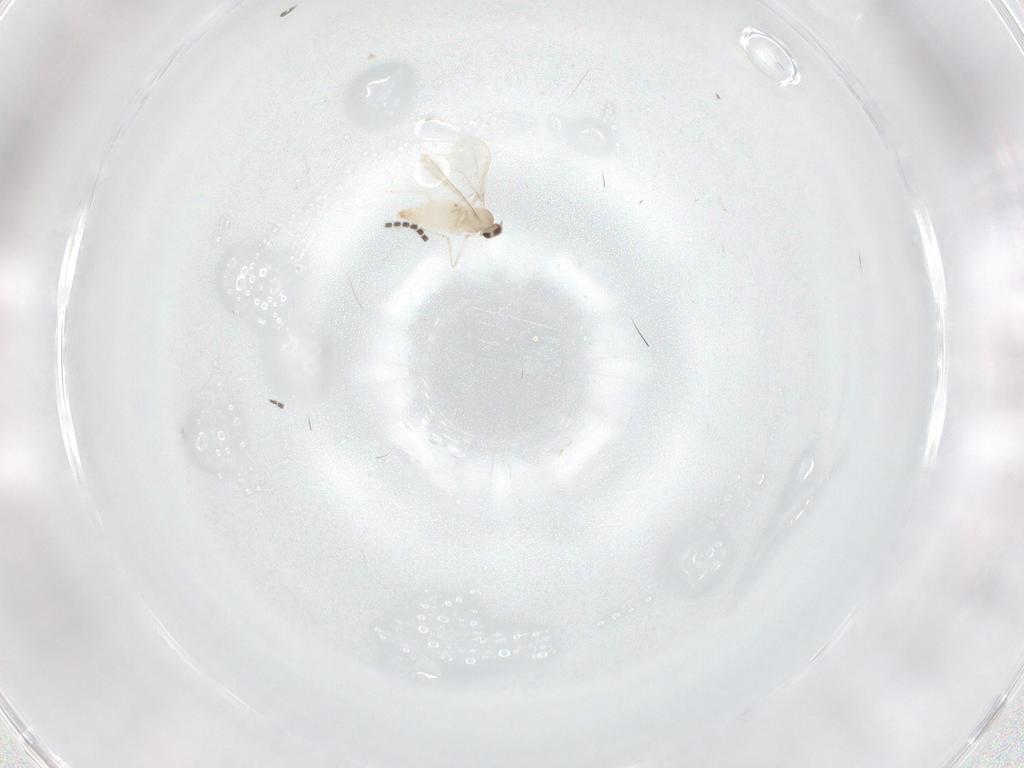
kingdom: Animalia
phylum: Arthropoda
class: Insecta
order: Diptera
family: Cecidomyiidae
